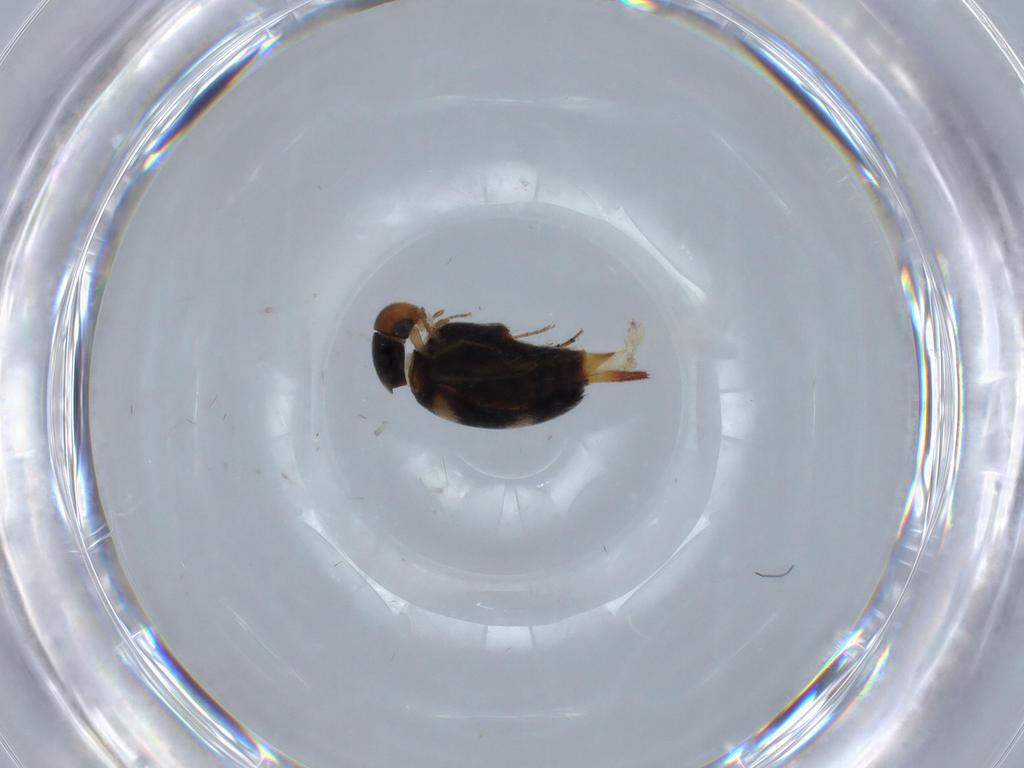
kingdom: Animalia
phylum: Arthropoda
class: Insecta
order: Coleoptera
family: Mordellidae
